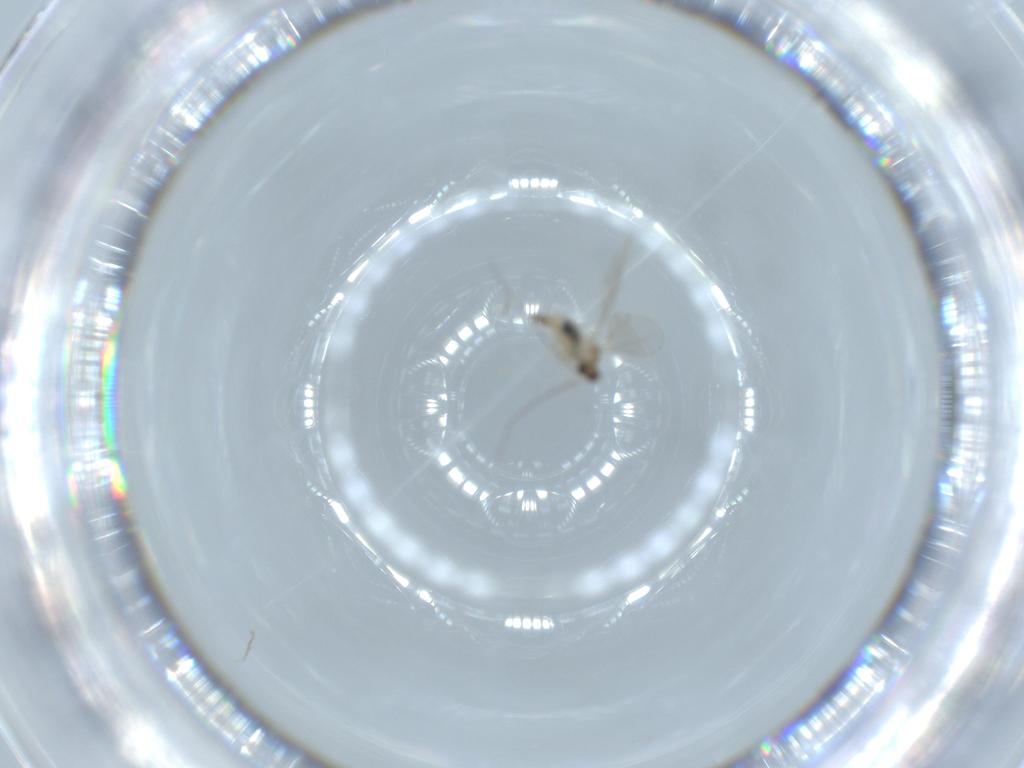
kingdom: Animalia
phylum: Arthropoda
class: Insecta
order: Diptera
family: Cecidomyiidae
